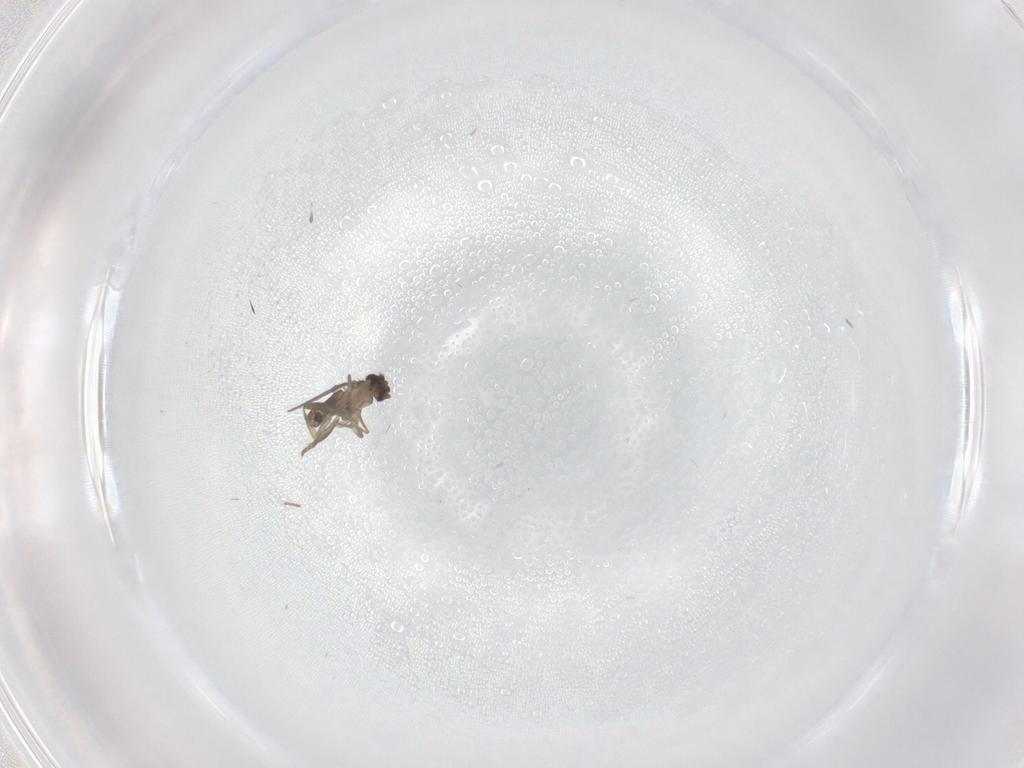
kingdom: Animalia
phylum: Arthropoda
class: Insecta
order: Diptera
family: Phoridae
